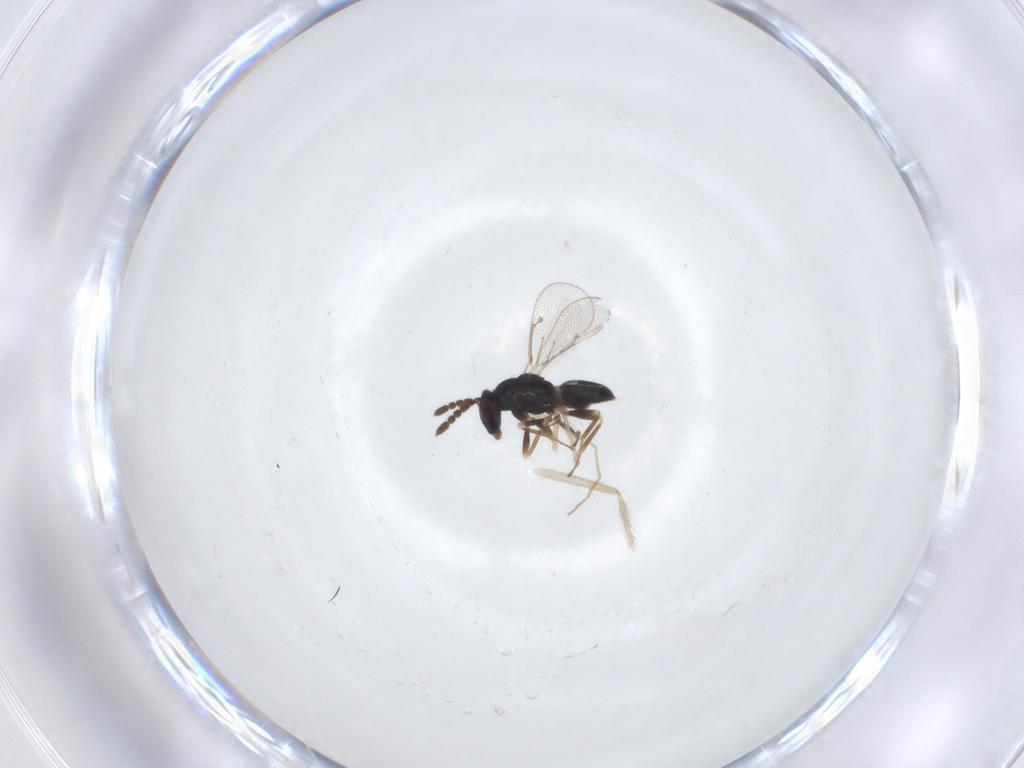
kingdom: Animalia
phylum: Arthropoda
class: Insecta
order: Hymenoptera
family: Eulophidae
